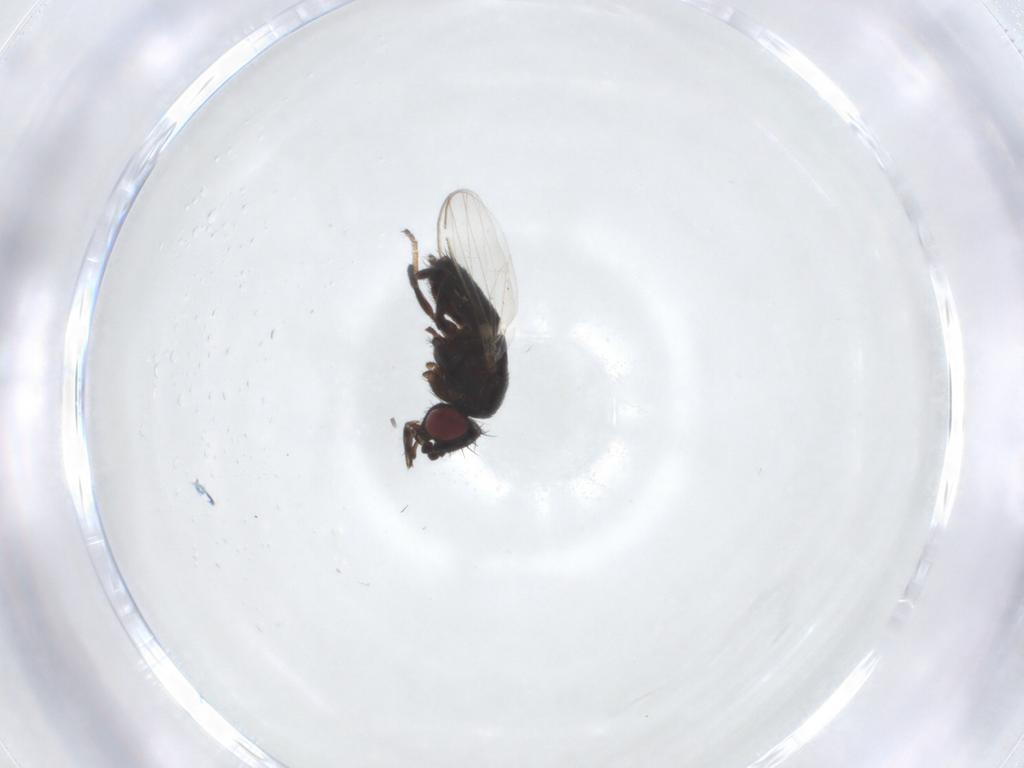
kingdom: Animalia
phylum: Arthropoda
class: Insecta
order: Diptera
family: Milichiidae
